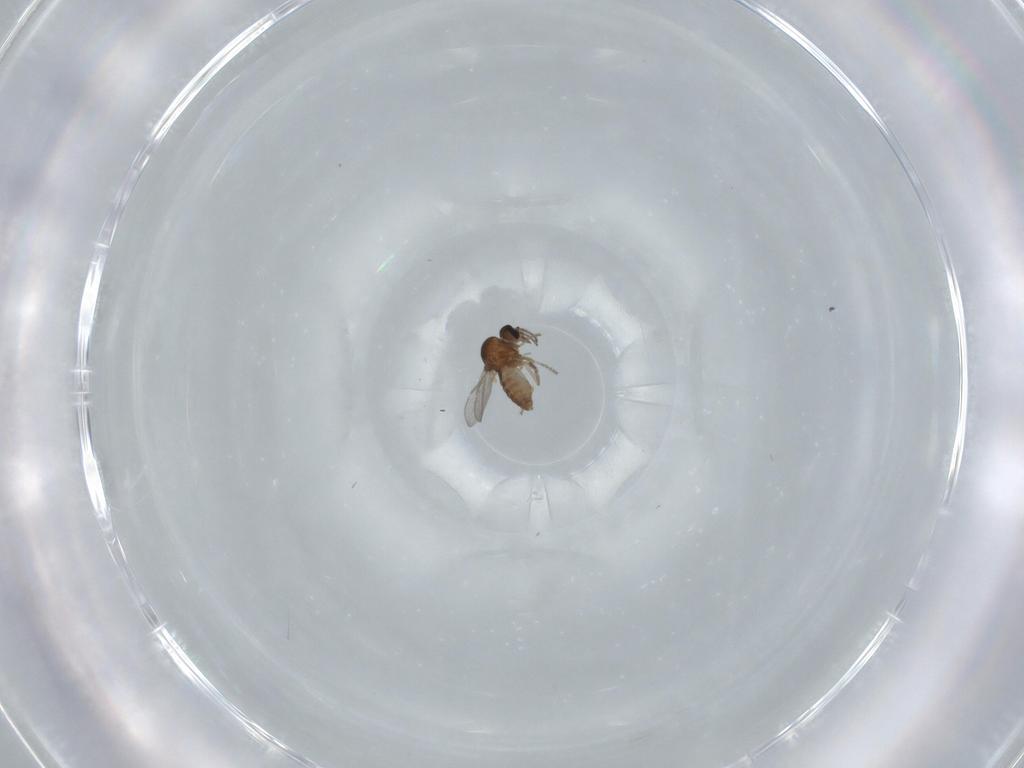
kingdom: Animalia
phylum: Arthropoda
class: Insecta
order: Diptera
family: Ceratopogonidae
